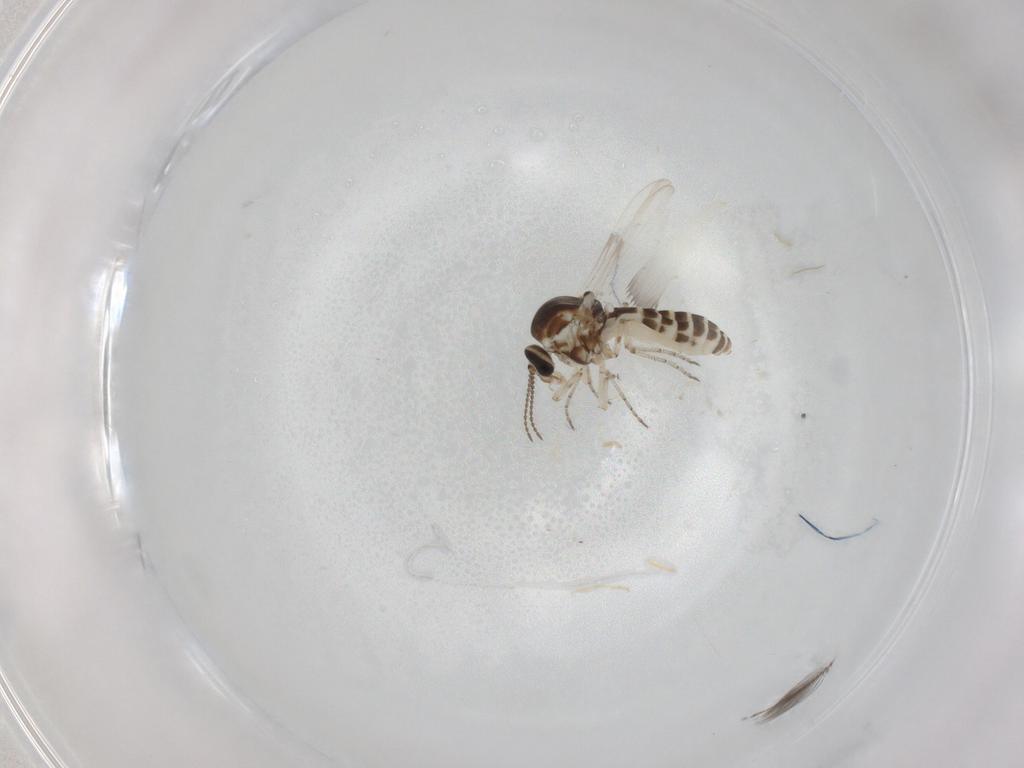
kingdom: Animalia
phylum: Arthropoda
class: Insecta
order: Diptera
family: Ceratopogonidae
